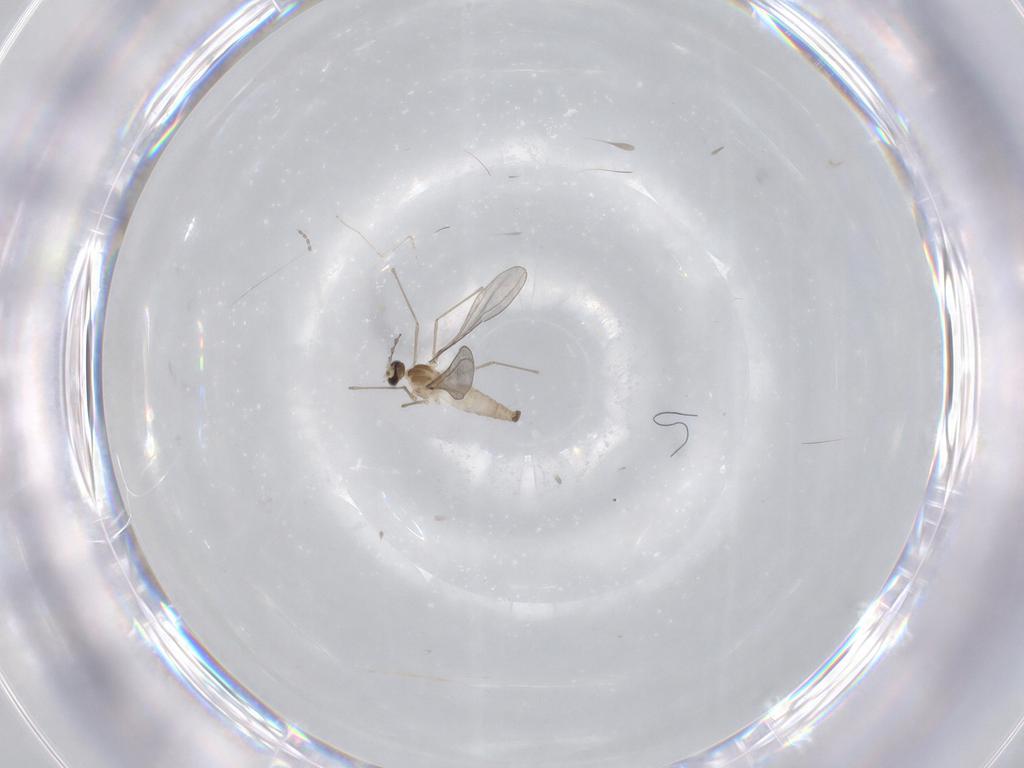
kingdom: Animalia
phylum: Arthropoda
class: Insecta
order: Diptera
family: Cecidomyiidae
